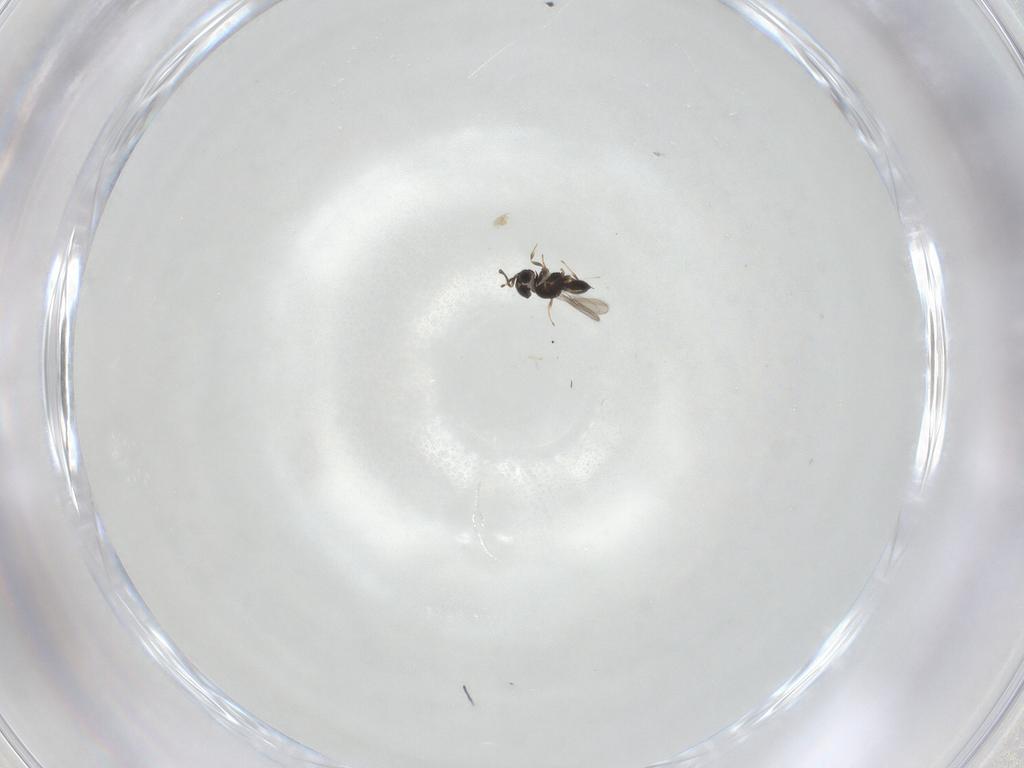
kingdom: Animalia
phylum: Arthropoda
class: Insecta
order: Hymenoptera
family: Scelionidae
